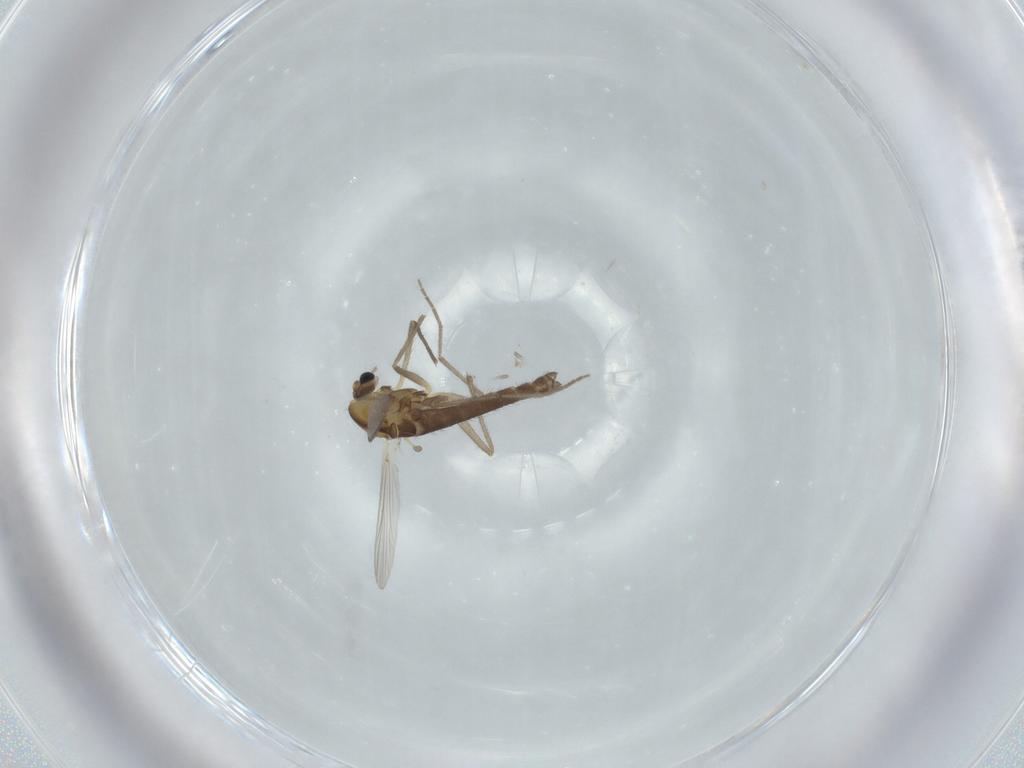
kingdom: Animalia
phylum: Arthropoda
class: Insecta
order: Diptera
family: Chironomidae
